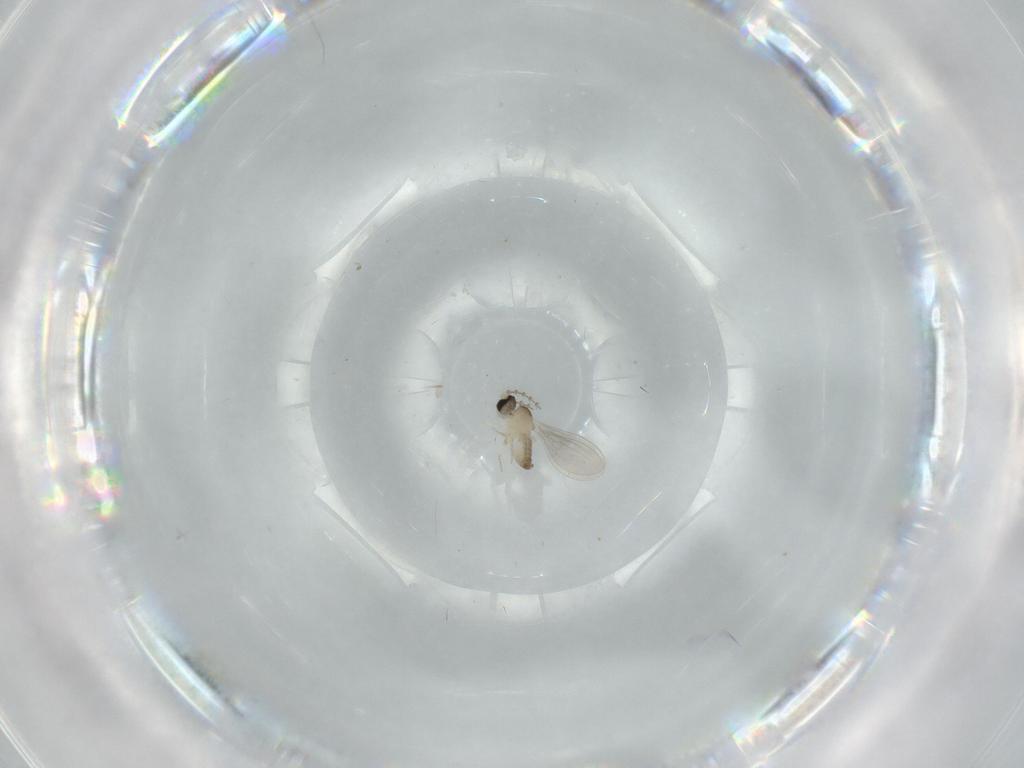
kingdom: Animalia
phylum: Arthropoda
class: Insecta
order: Diptera
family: Cecidomyiidae
